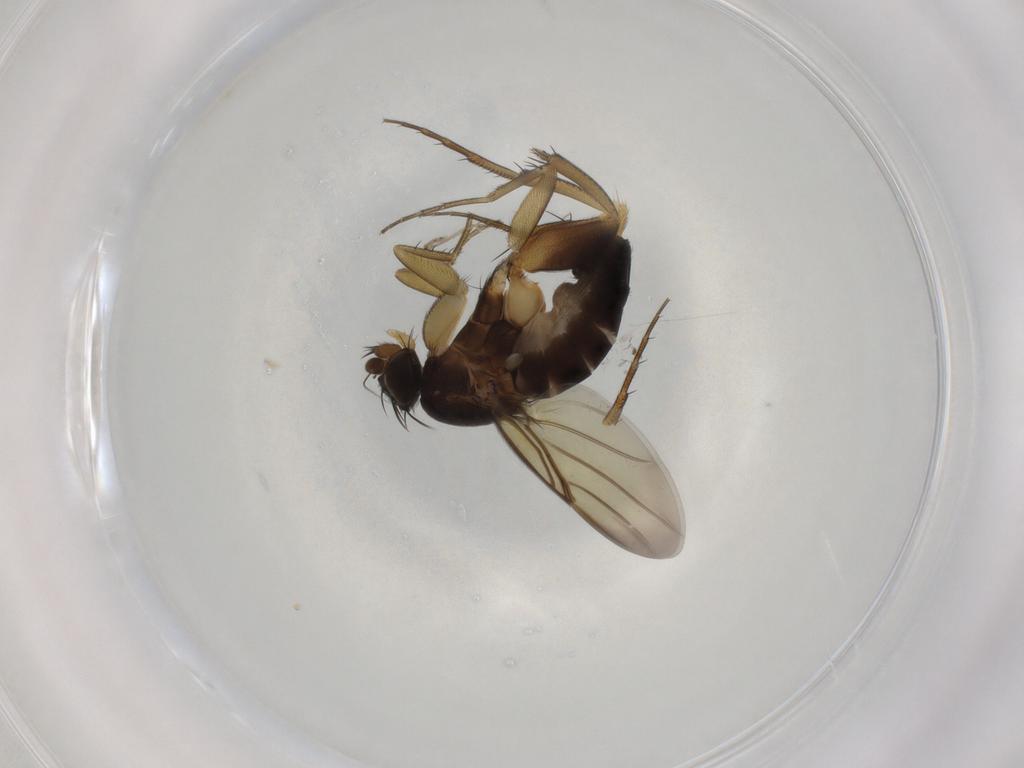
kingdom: Animalia
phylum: Arthropoda
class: Insecta
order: Diptera
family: Phoridae
